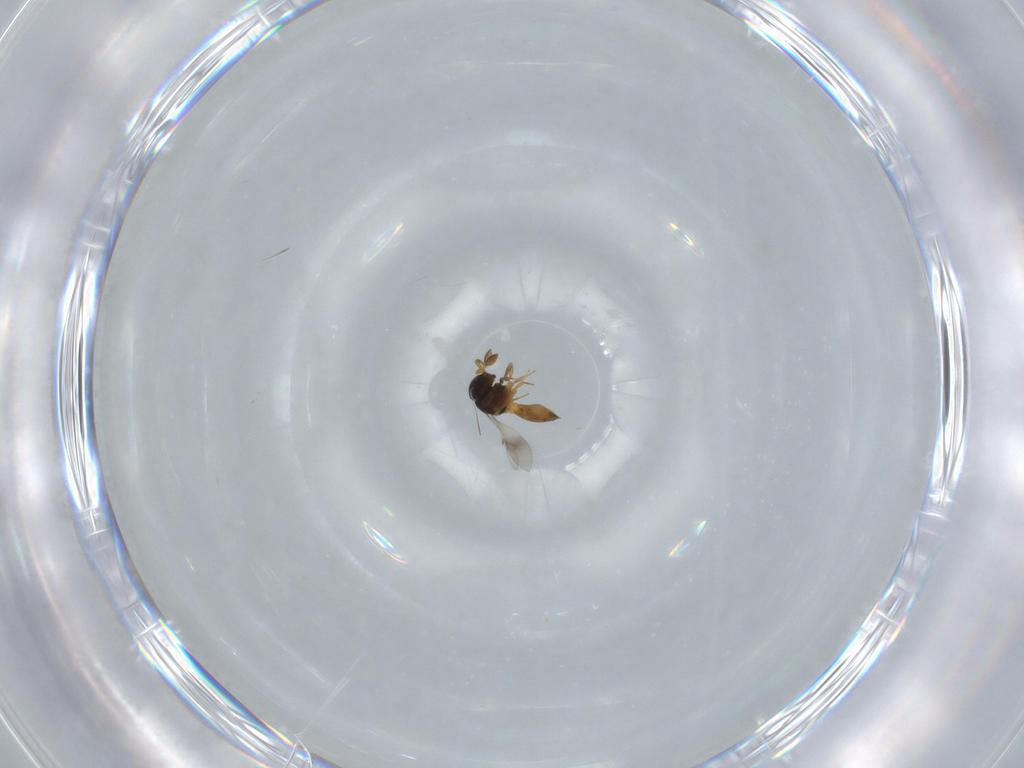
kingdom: Animalia
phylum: Arthropoda
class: Insecta
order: Hymenoptera
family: Scelionidae
